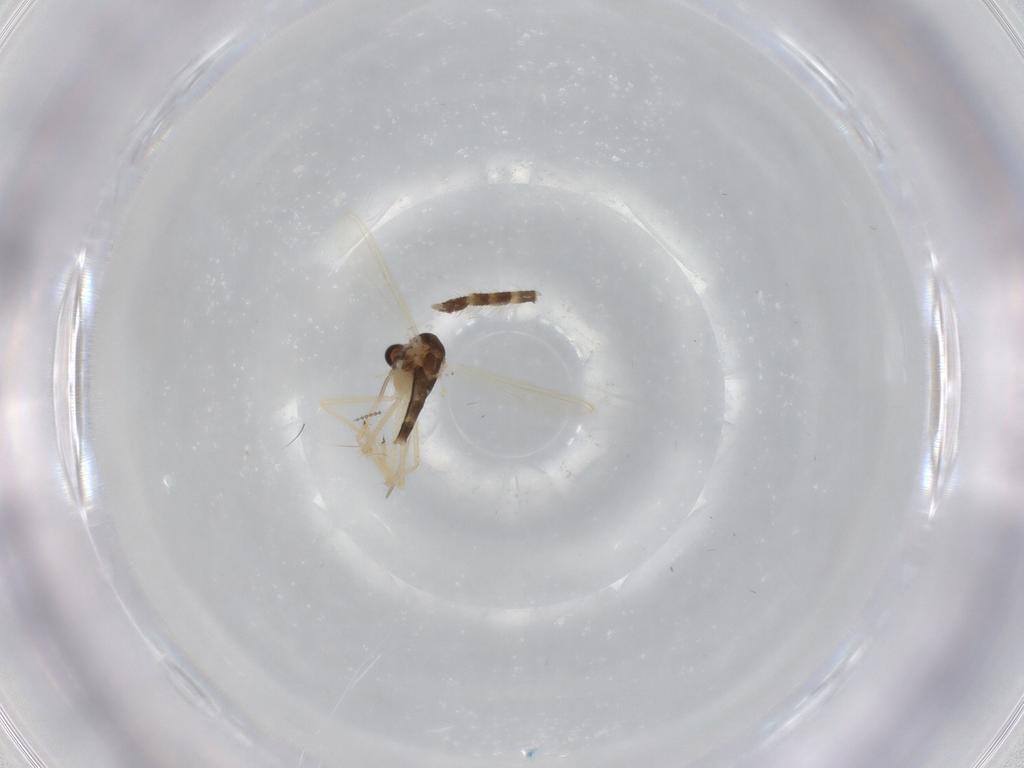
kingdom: Animalia
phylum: Arthropoda
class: Insecta
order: Diptera
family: Chironomidae
